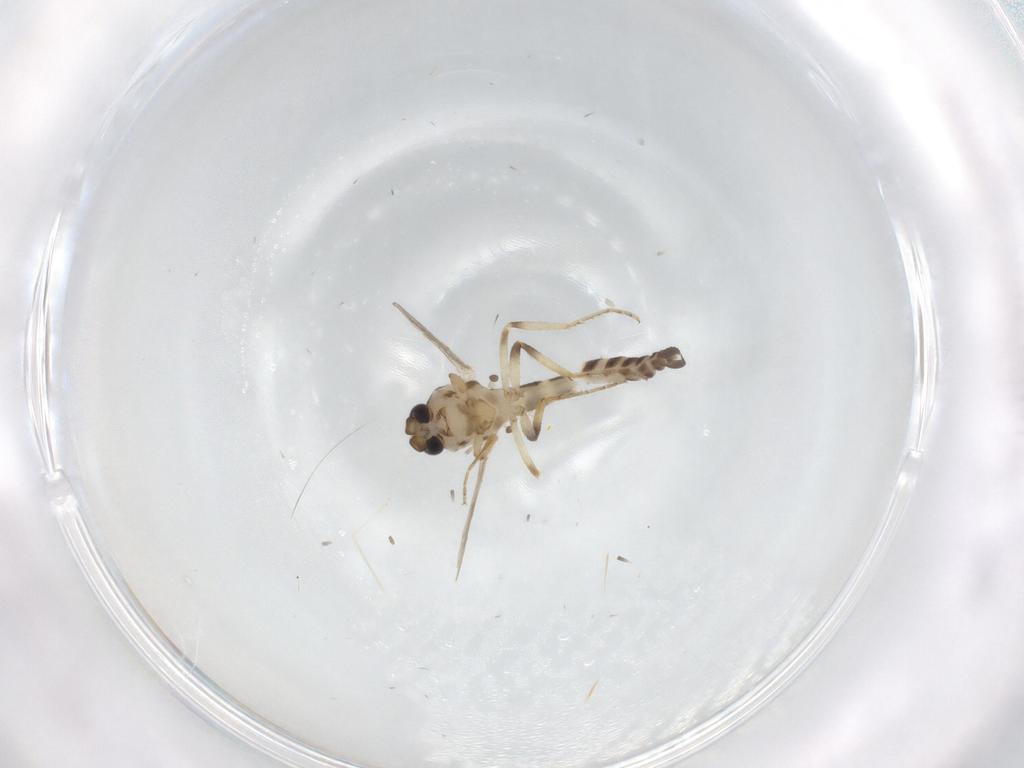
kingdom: Animalia
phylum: Arthropoda
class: Insecta
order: Diptera
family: Ceratopogonidae
